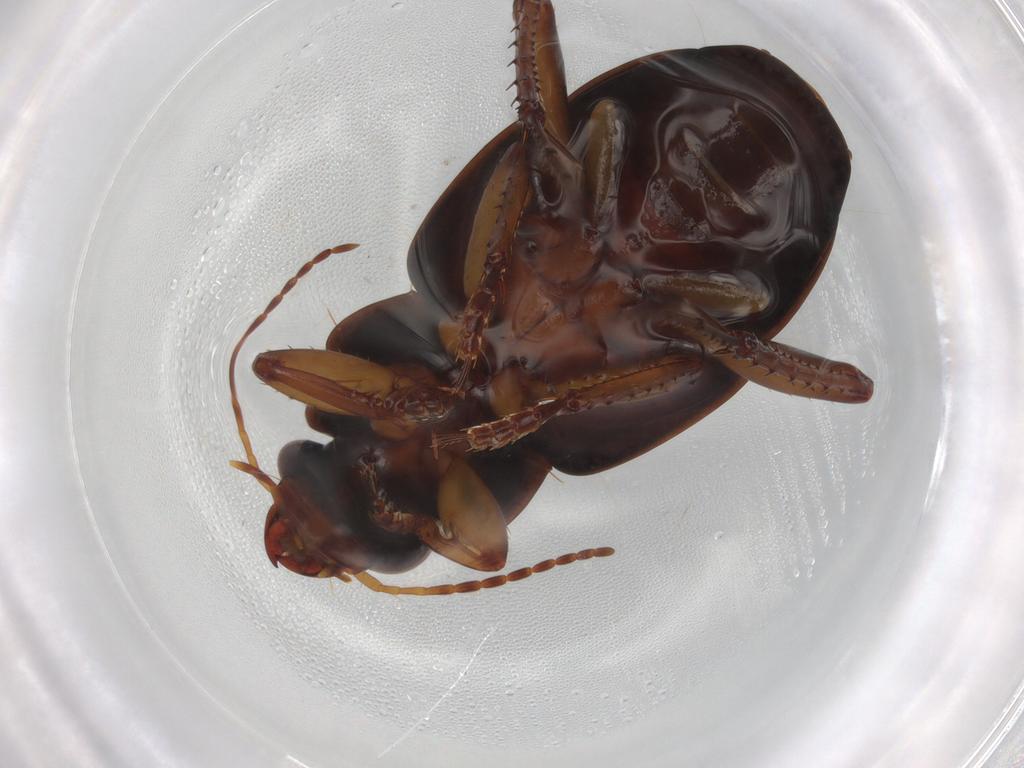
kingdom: Animalia
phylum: Arthropoda
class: Insecta
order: Coleoptera
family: Carabidae
